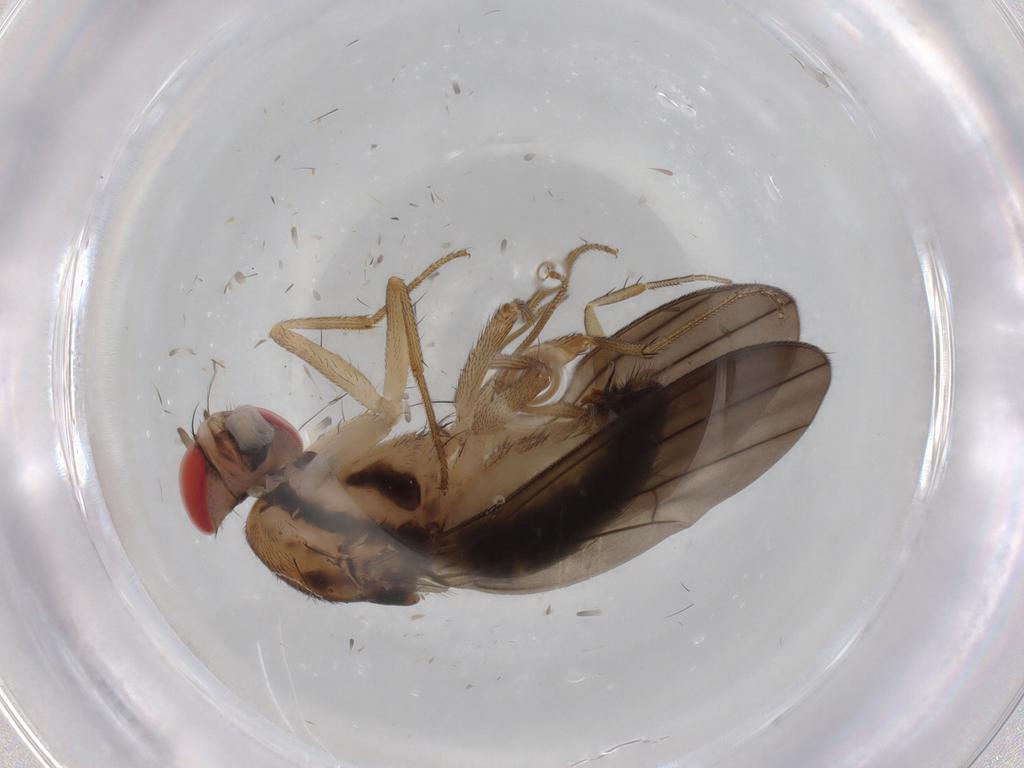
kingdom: Animalia
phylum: Arthropoda
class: Insecta
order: Diptera
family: Cecidomyiidae
